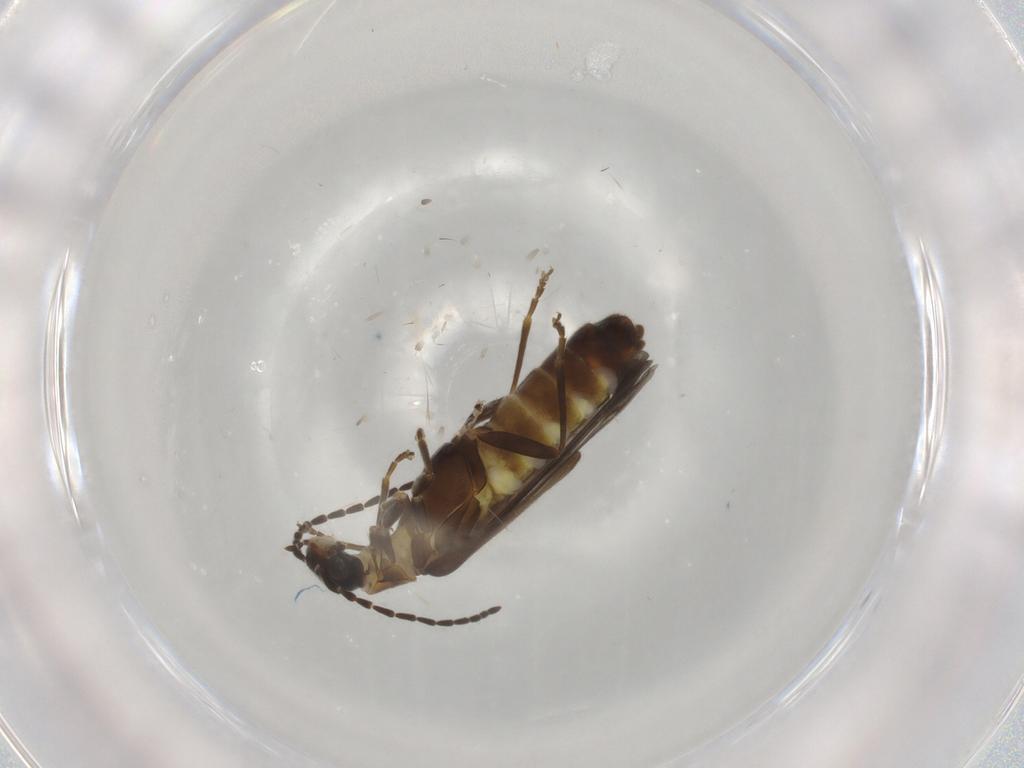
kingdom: Animalia
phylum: Arthropoda
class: Insecta
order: Coleoptera
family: Cantharidae
